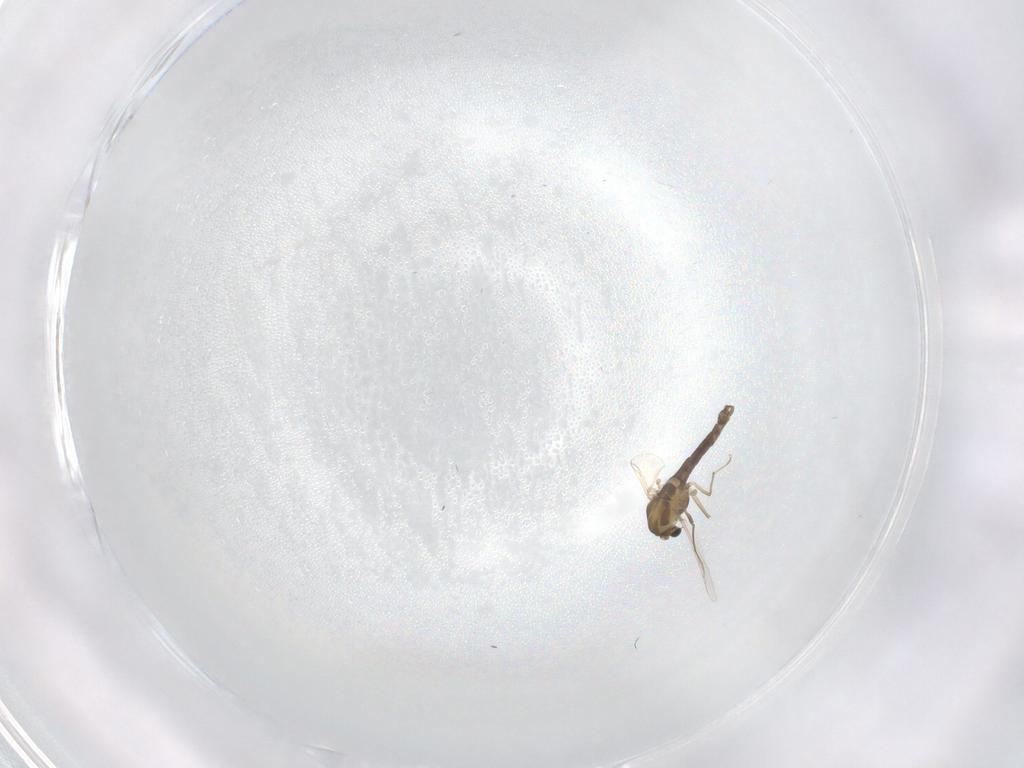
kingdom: Animalia
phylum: Arthropoda
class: Insecta
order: Diptera
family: Chironomidae
